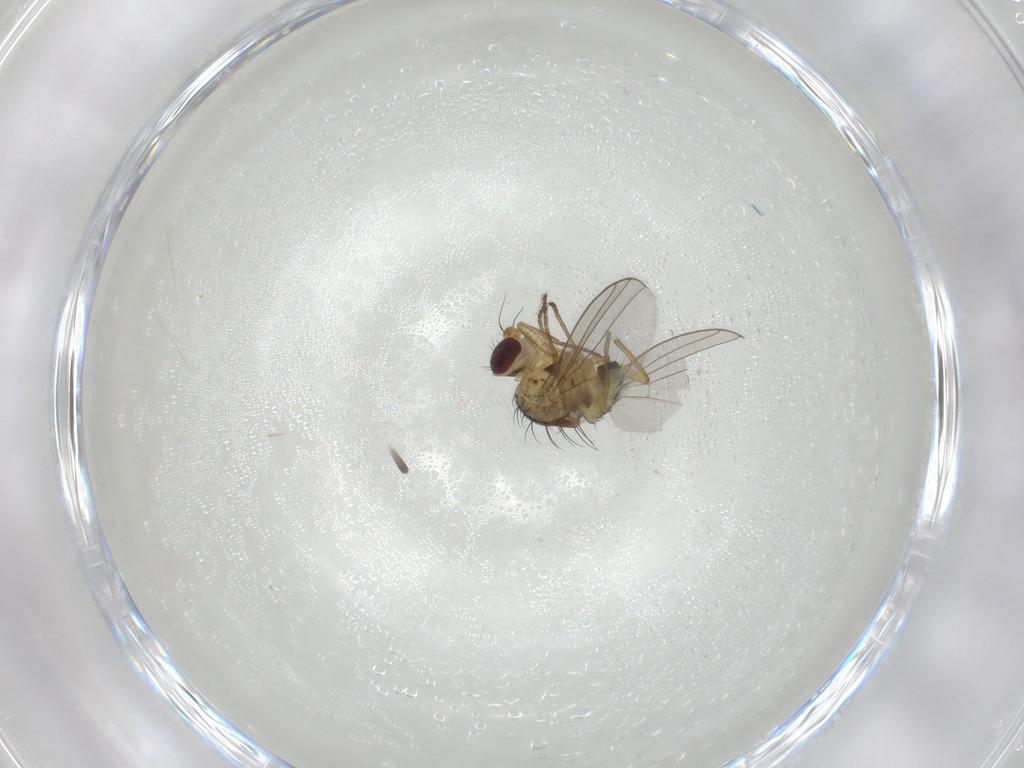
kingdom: Animalia
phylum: Arthropoda
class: Insecta
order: Diptera
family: Agromyzidae
